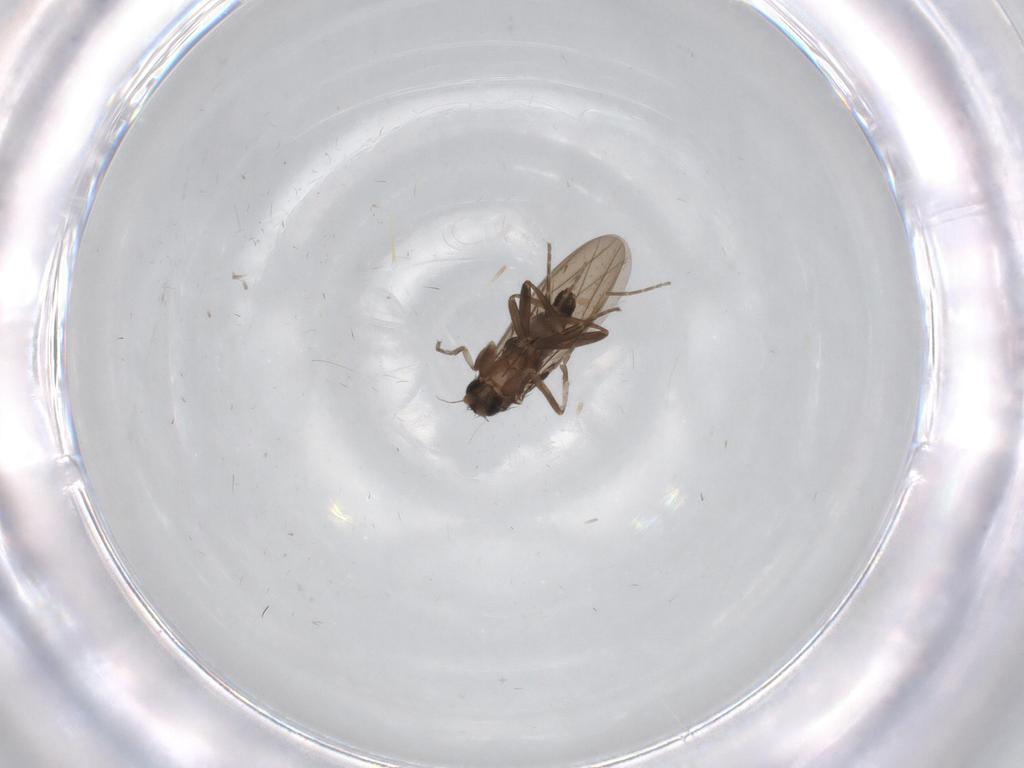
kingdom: Animalia
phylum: Arthropoda
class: Insecta
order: Diptera
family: Phoridae
